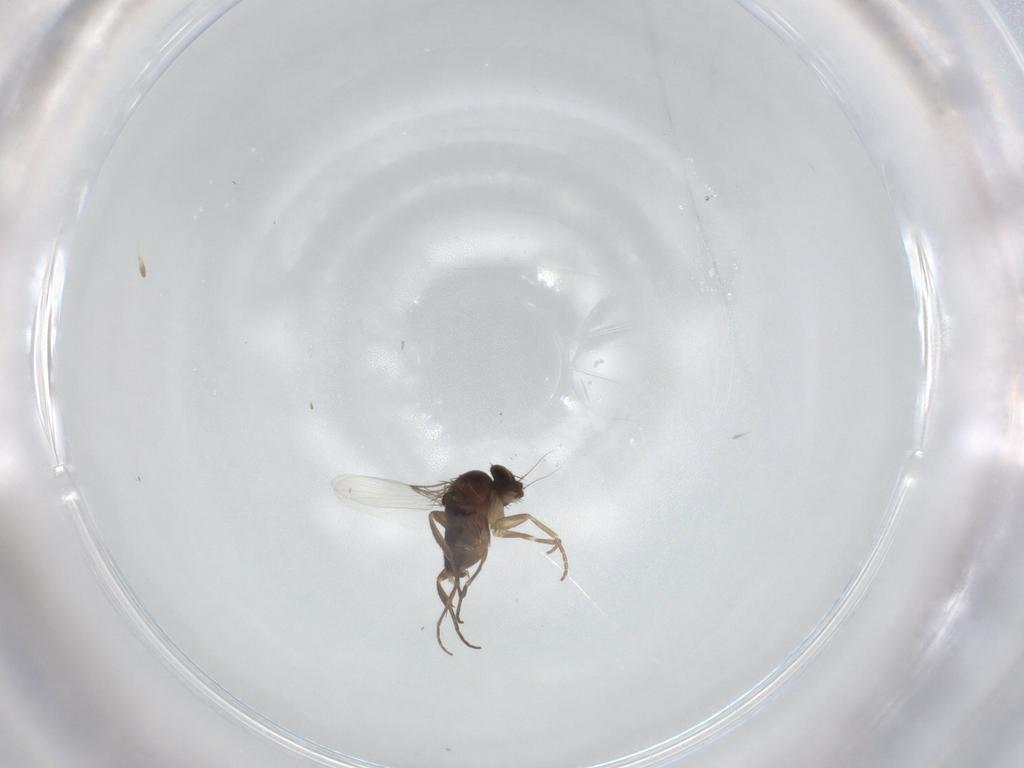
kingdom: Animalia
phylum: Arthropoda
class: Insecta
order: Diptera
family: Phoridae
